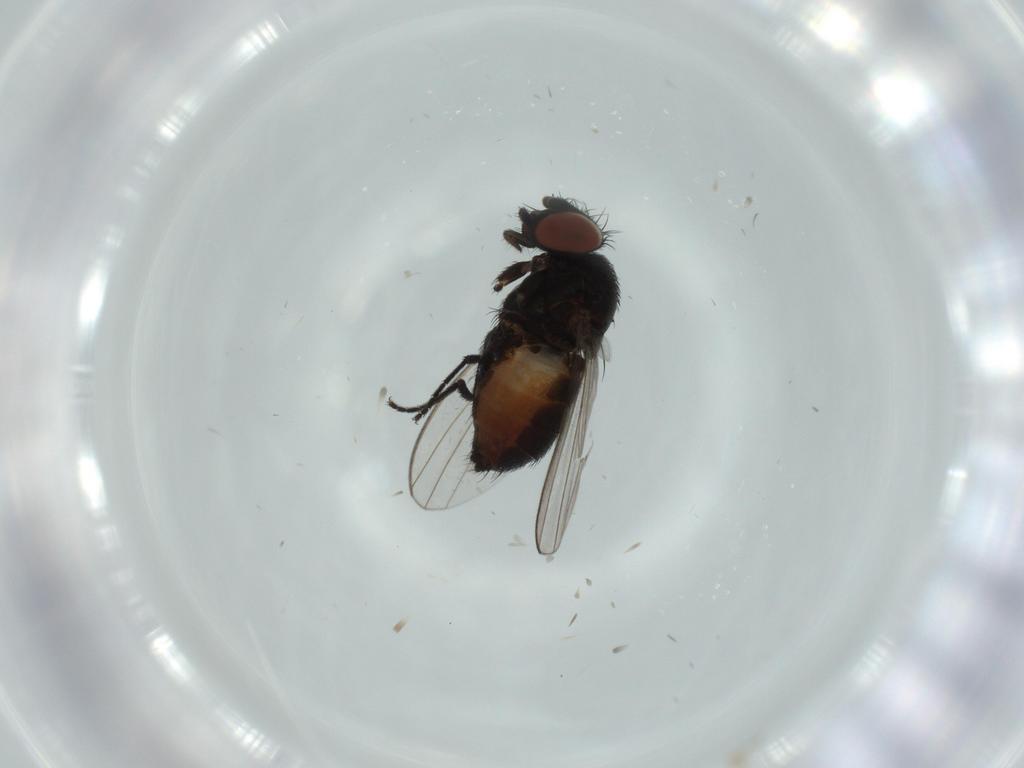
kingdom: Animalia
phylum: Arthropoda
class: Insecta
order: Diptera
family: Milichiidae
